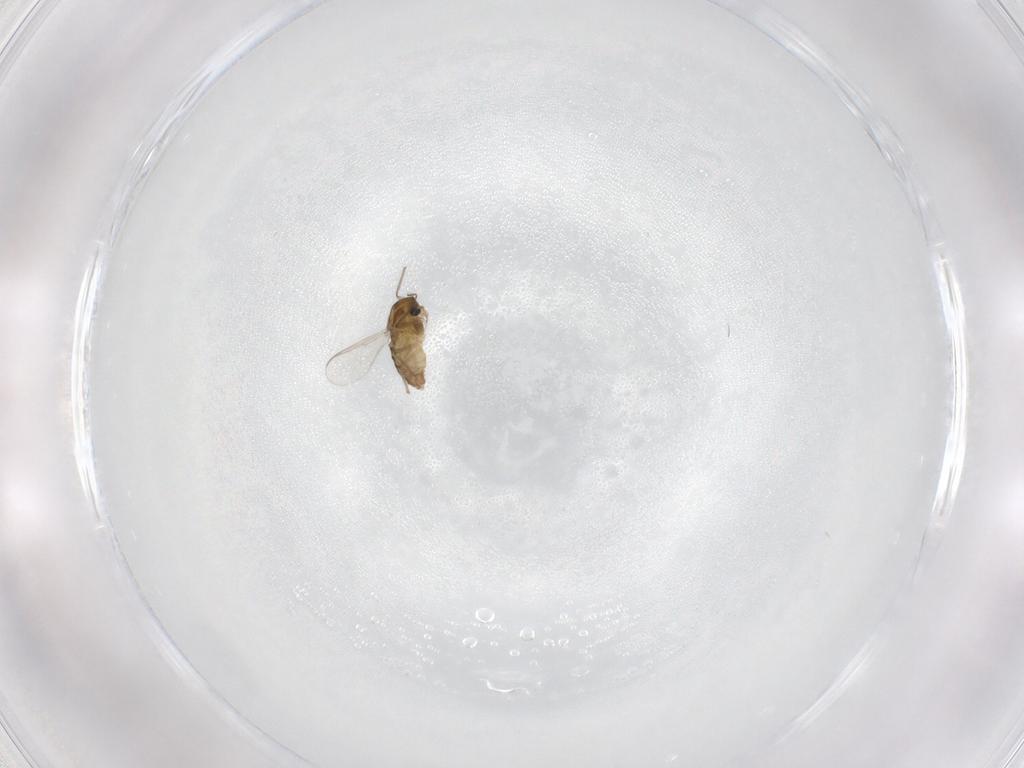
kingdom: Animalia
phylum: Arthropoda
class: Insecta
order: Diptera
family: Chironomidae
